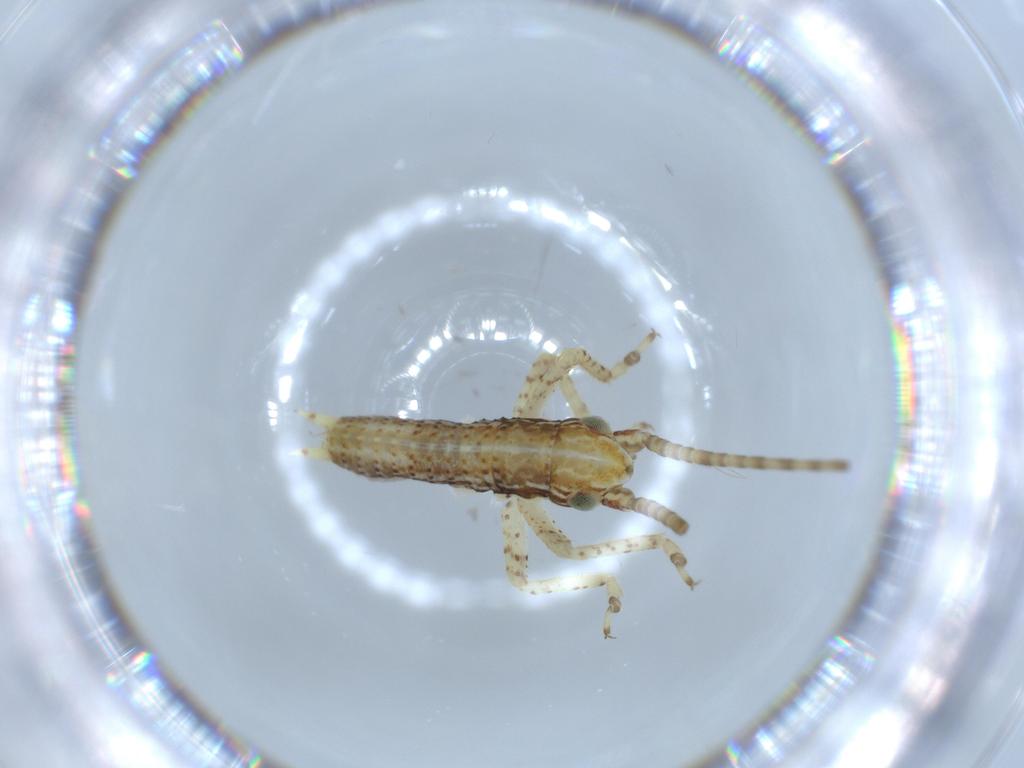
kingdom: Animalia
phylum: Arthropoda
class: Insecta
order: Orthoptera
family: Gryllidae
